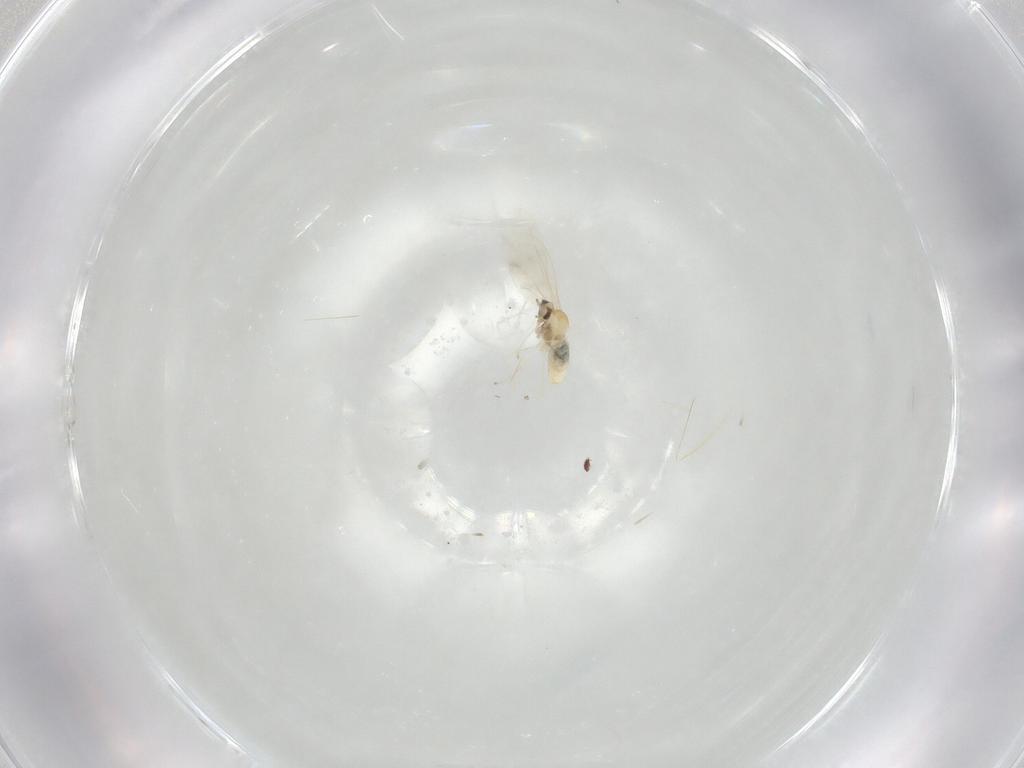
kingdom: Animalia
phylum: Arthropoda
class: Insecta
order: Diptera
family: Cecidomyiidae
